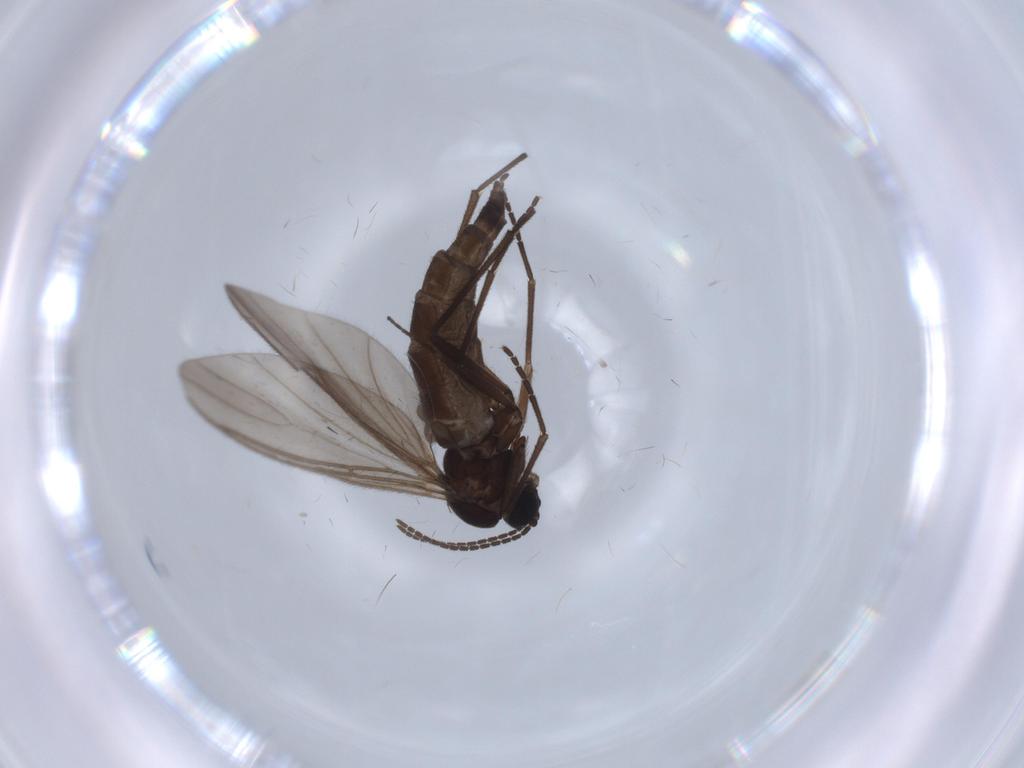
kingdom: Animalia
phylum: Arthropoda
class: Insecta
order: Diptera
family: Sciaridae
